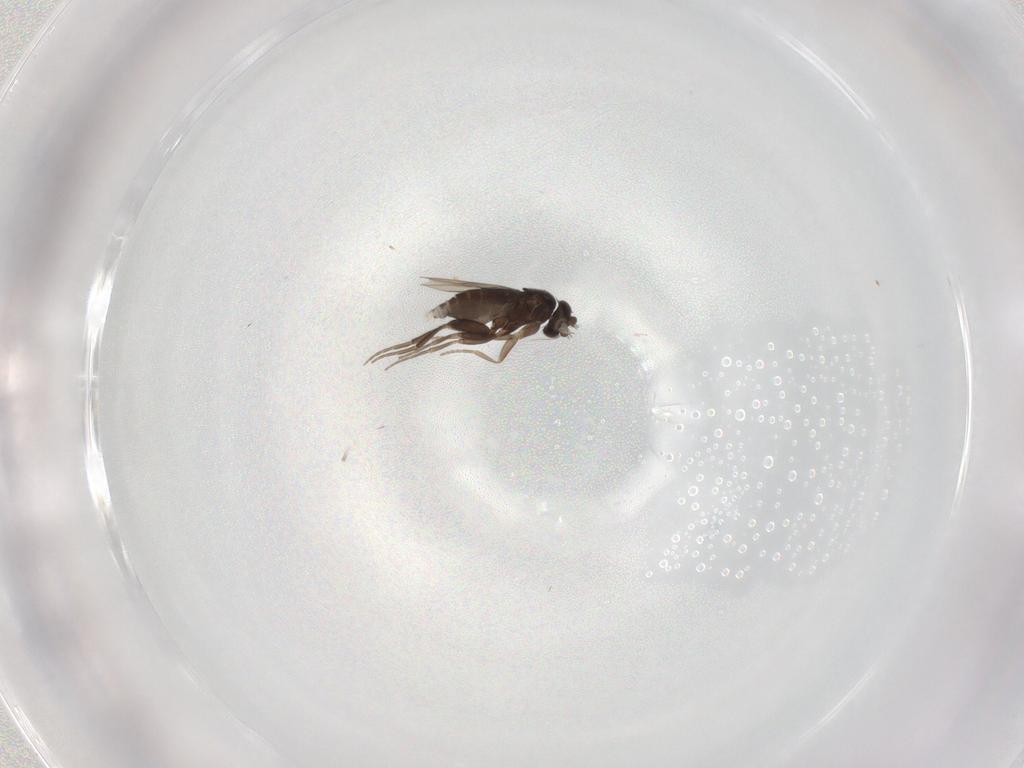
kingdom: Animalia
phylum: Arthropoda
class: Insecta
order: Diptera
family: Phoridae
